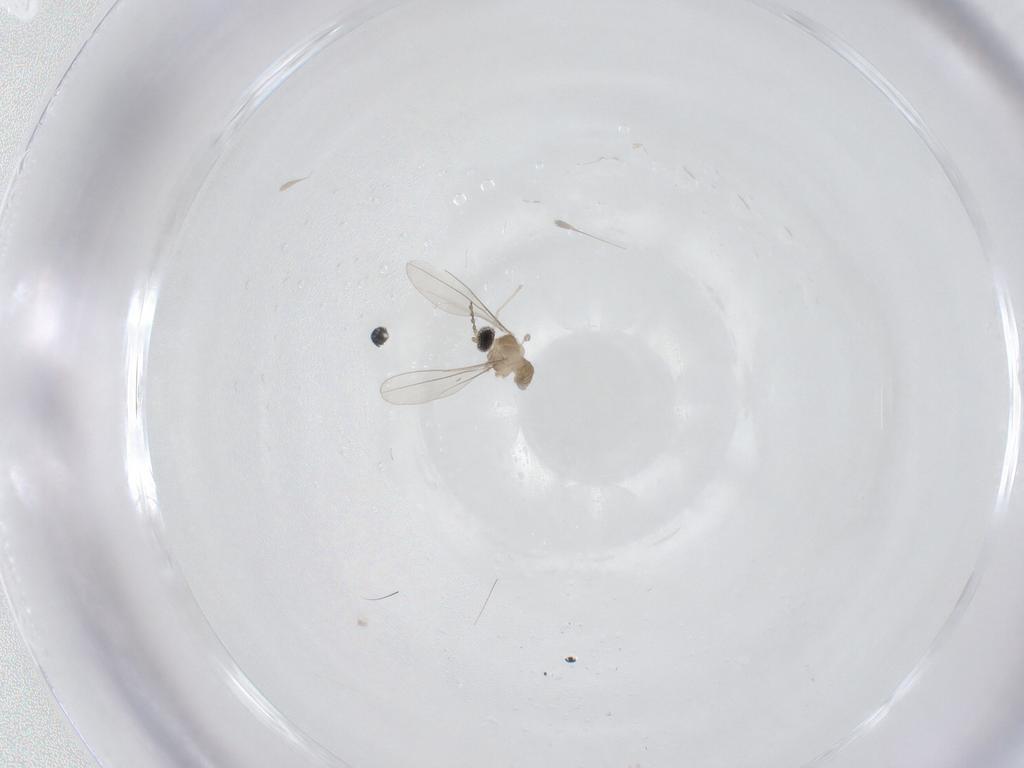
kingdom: Animalia
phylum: Arthropoda
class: Insecta
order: Diptera
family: Cecidomyiidae
